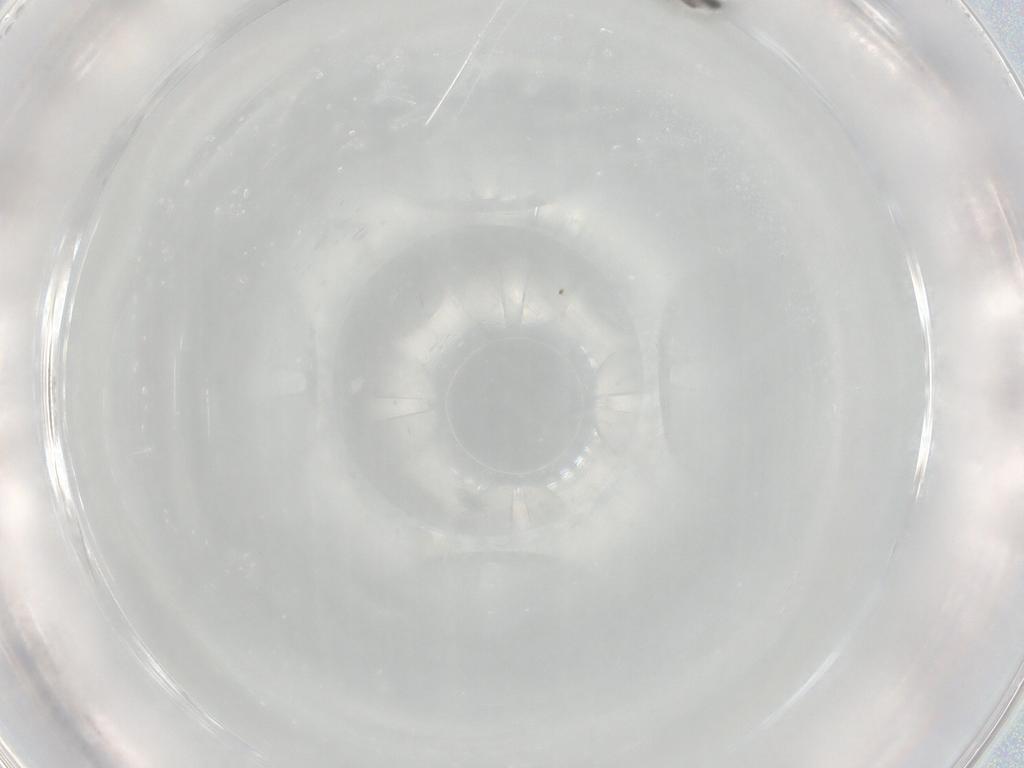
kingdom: Animalia
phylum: Arthropoda
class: Insecta
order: Hymenoptera
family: Platygastridae
